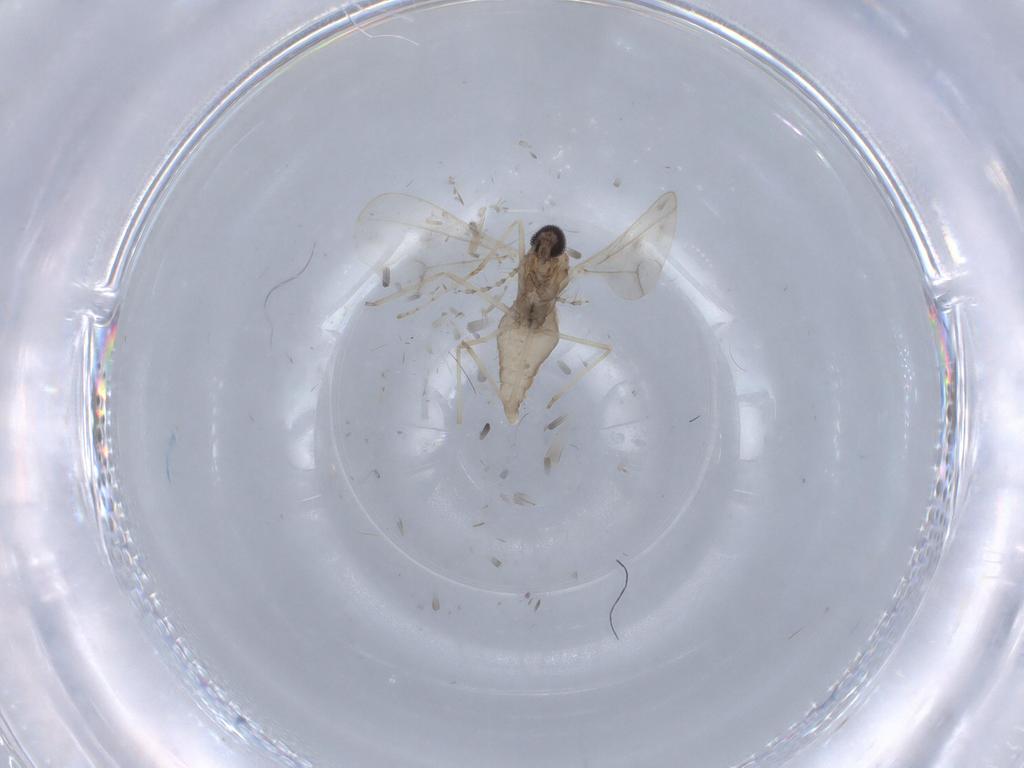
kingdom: Animalia
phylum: Arthropoda
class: Insecta
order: Diptera
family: Cecidomyiidae
